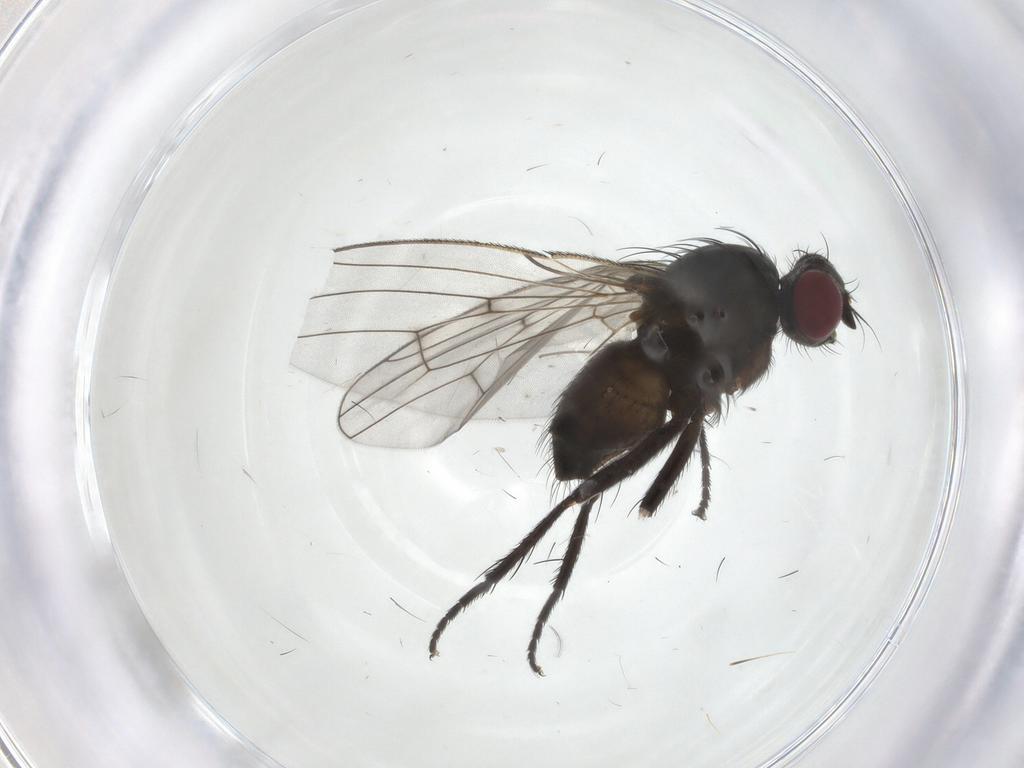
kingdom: Animalia
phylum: Arthropoda
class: Insecta
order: Diptera
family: Muscidae
